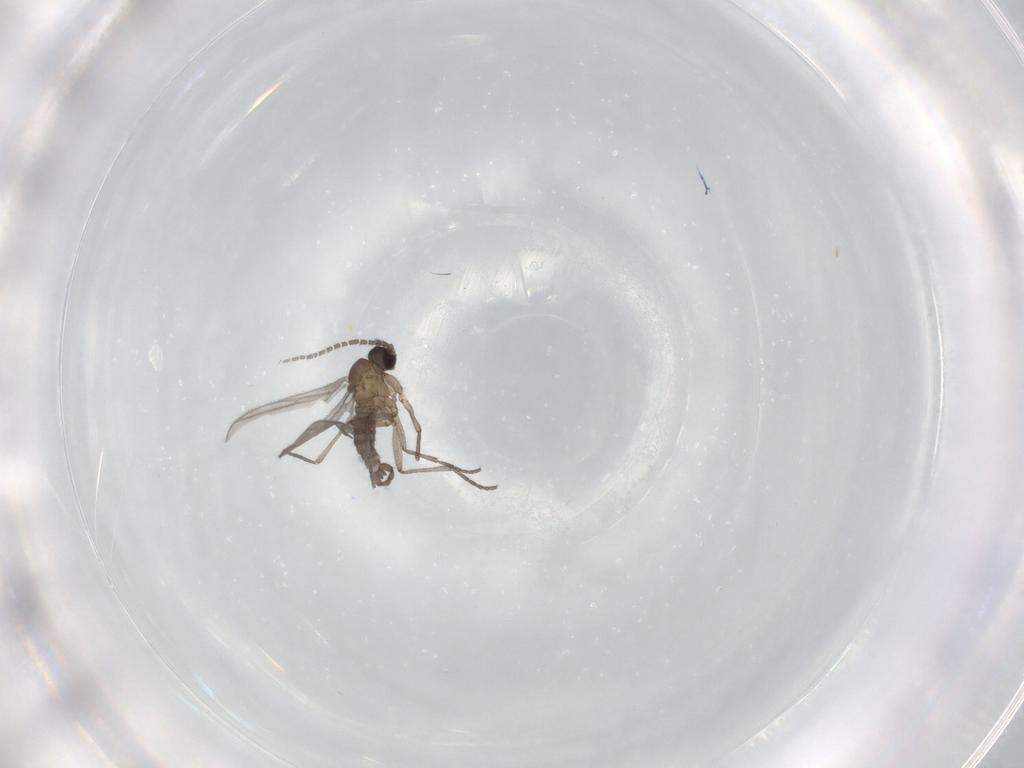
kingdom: Animalia
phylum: Arthropoda
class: Insecta
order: Diptera
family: Sciaridae
